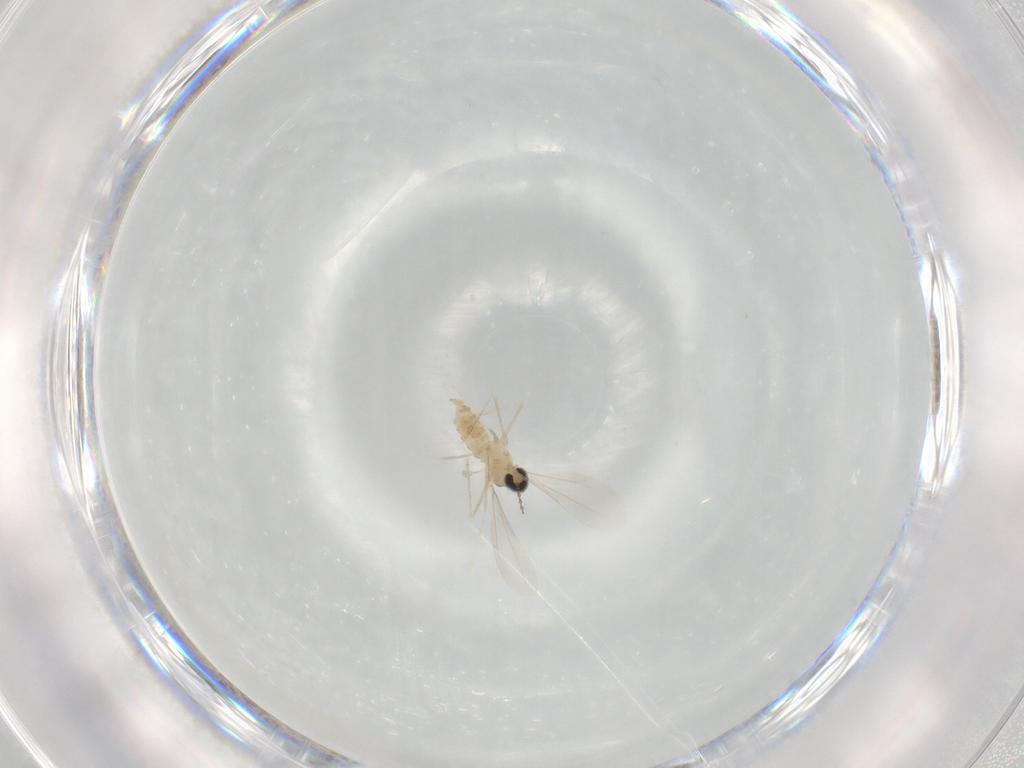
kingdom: Animalia
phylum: Arthropoda
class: Insecta
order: Diptera
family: Cecidomyiidae
